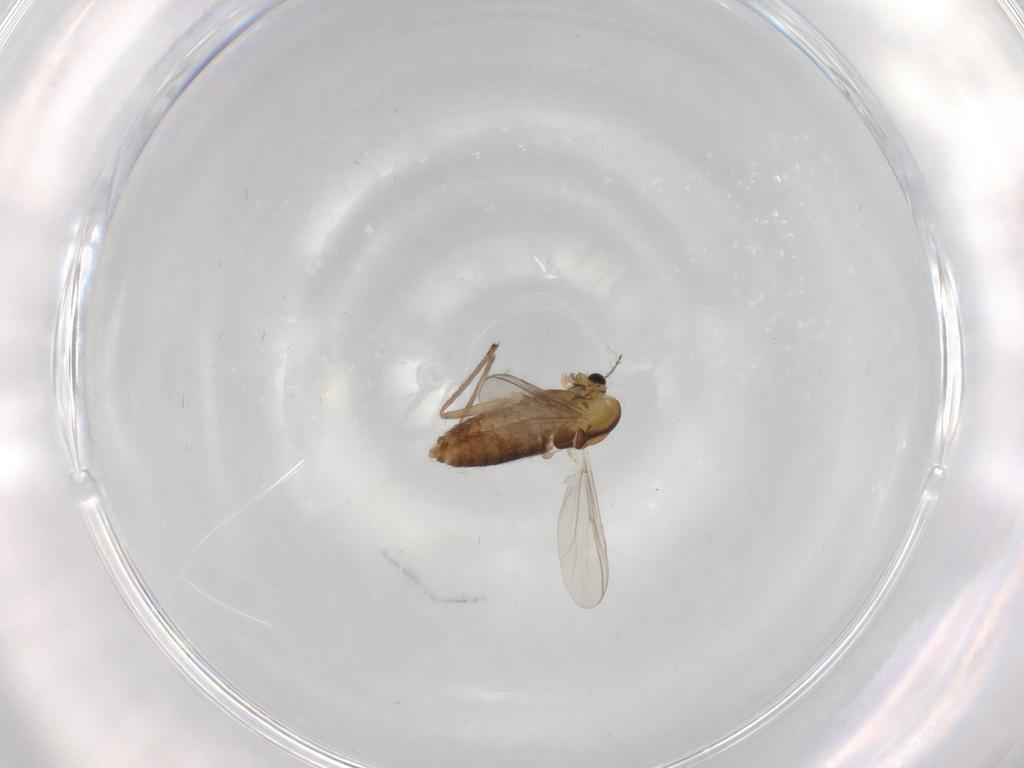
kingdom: Animalia
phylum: Arthropoda
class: Insecta
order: Diptera
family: Chironomidae
